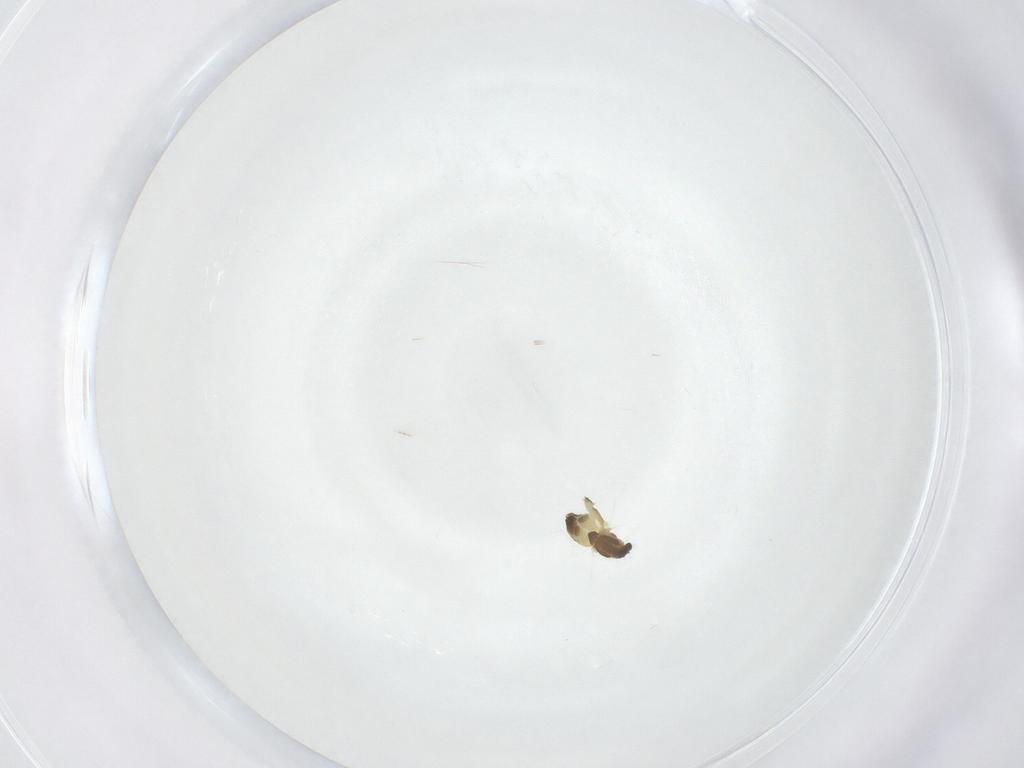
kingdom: Animalia
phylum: Arthropoda
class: Insecta
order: Diptera
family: Chironomidae
